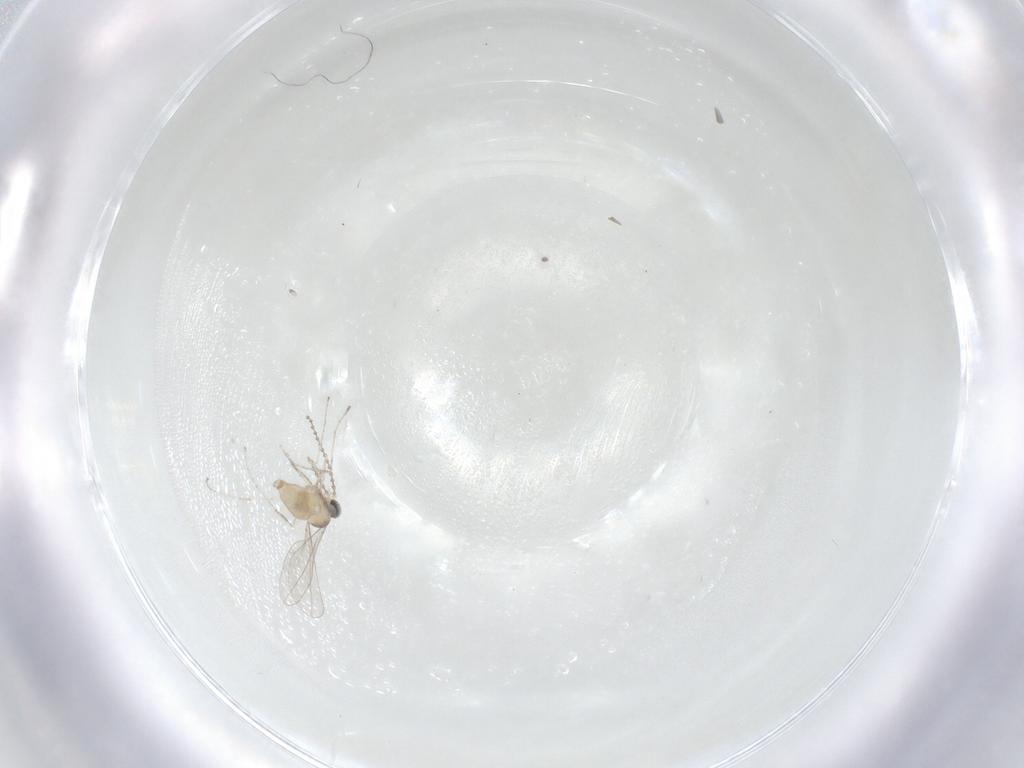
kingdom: Animalia
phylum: Arthropoda
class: Insecta
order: Diptera
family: Cecidomyiidae
